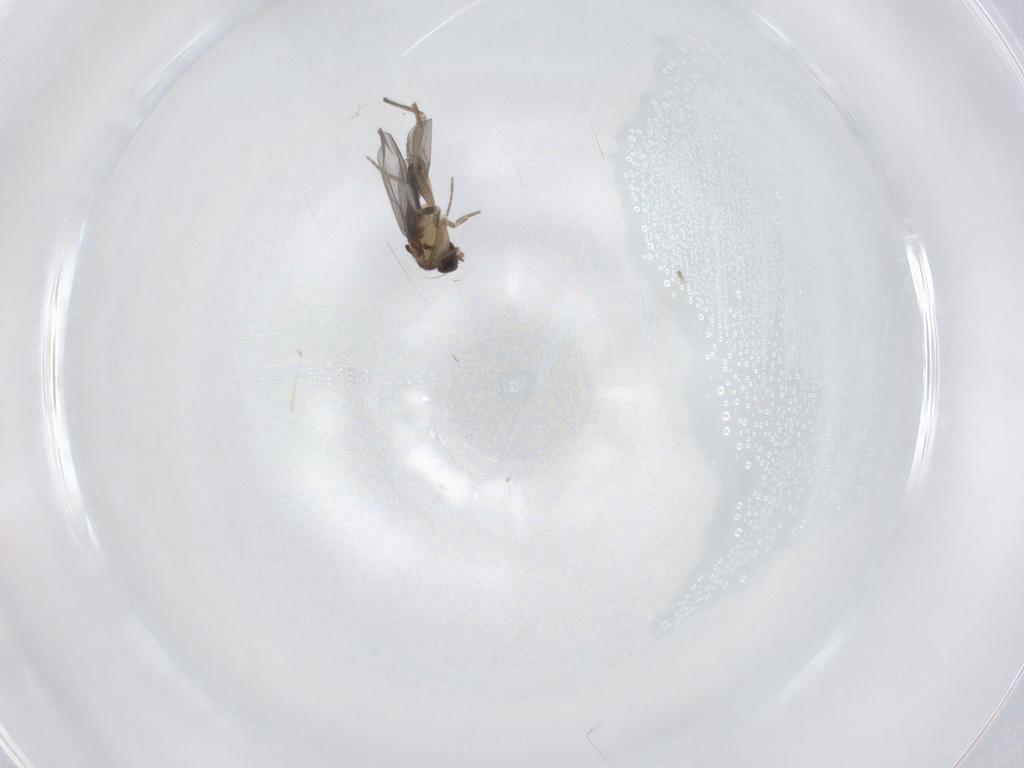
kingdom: Animalia
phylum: Arthropoda
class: Insecta
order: Diptera
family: Phoridae
